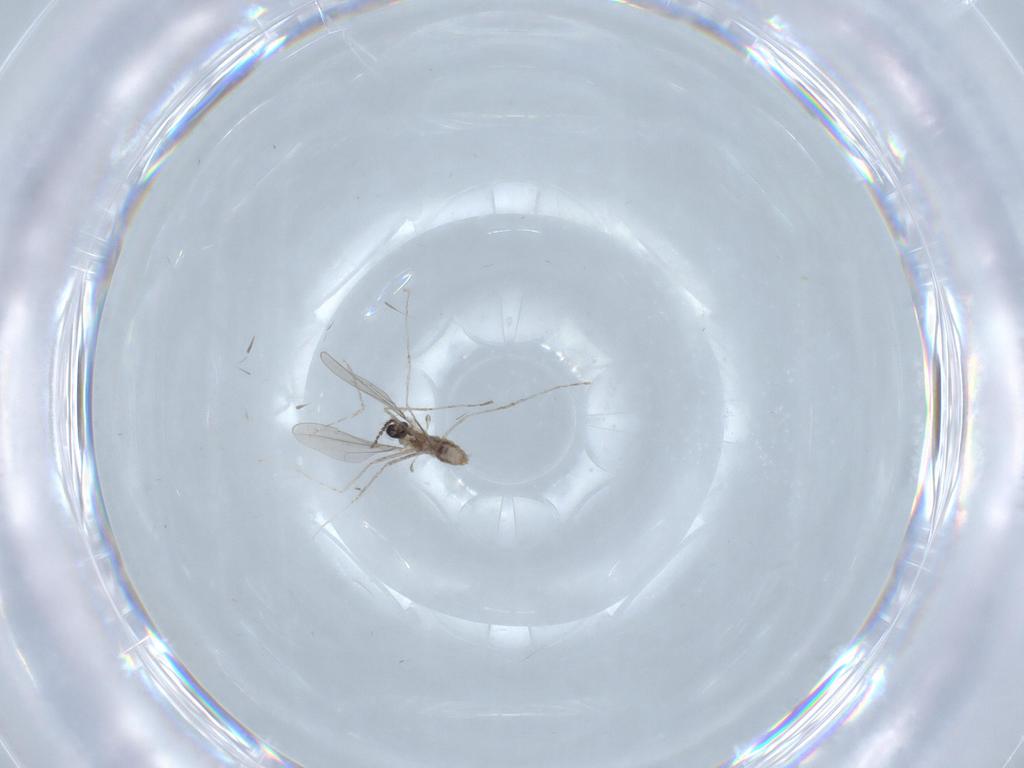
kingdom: Animalia
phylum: Arthropoda
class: Insecta
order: Diptera
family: Cecidomyiidae
